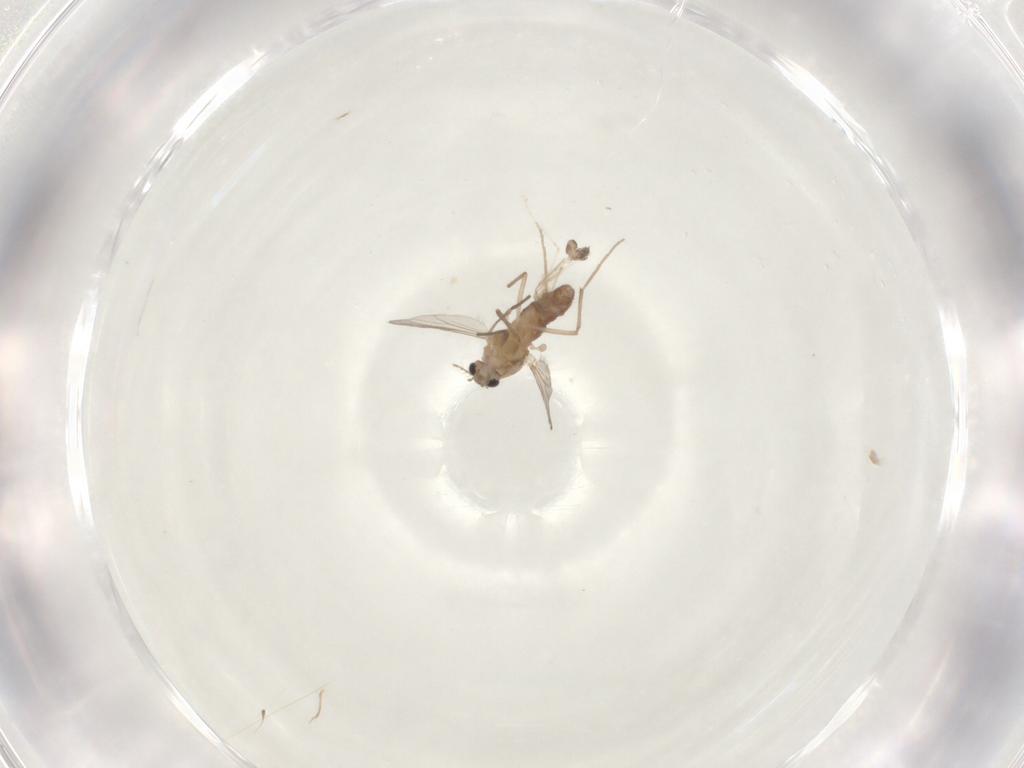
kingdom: Animalia
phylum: Arthropoda
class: Insecta
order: Diptera
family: Chironomidae
